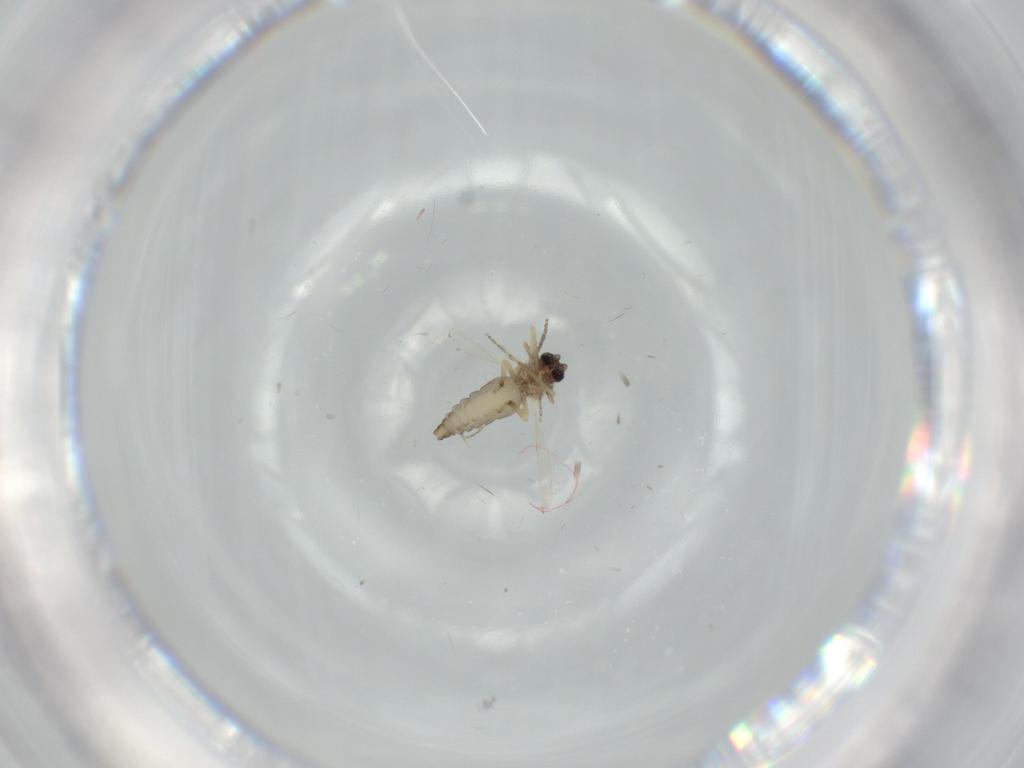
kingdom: Animalia
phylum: Arthropoda
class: Insecta
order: Diptera
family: Ceratopogonidae
